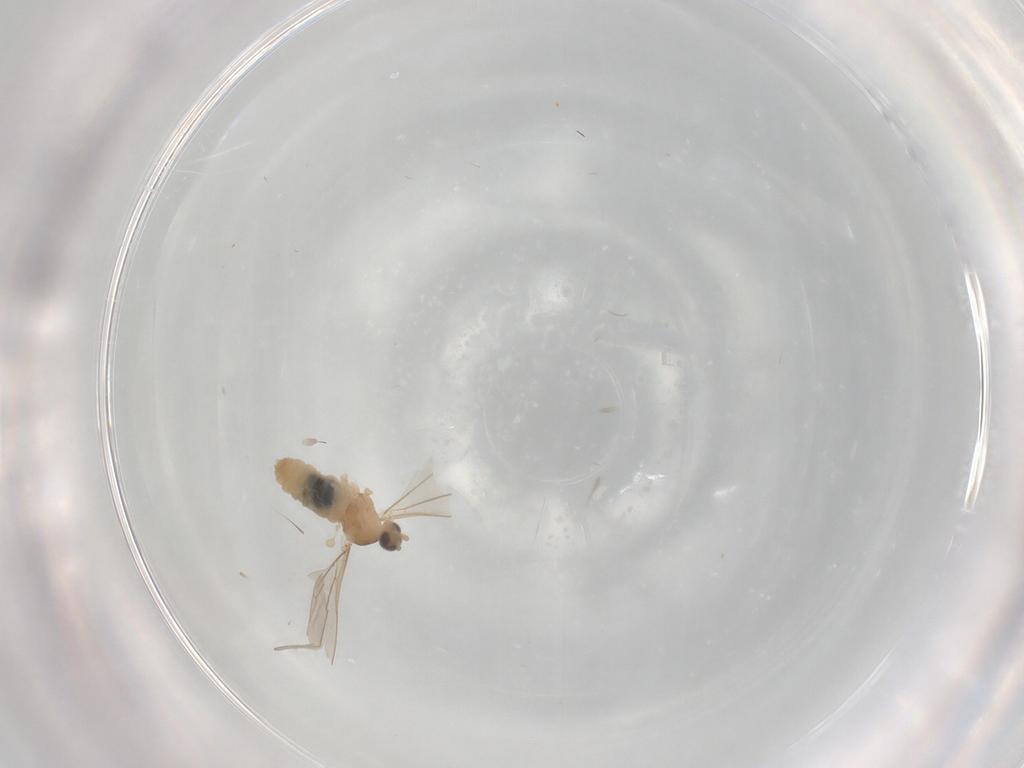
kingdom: Animalia
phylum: Arthropoda
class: Insecta
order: Diptera
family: Cecidomyiidae
